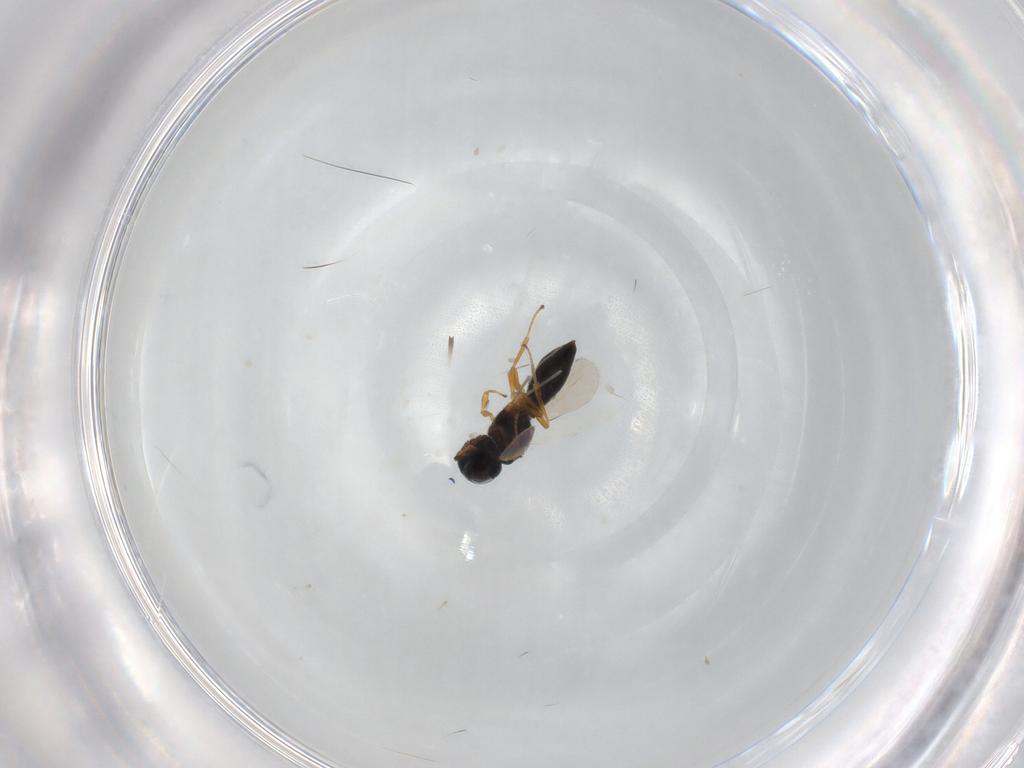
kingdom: Animalia
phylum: Arthropoda
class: Insecta
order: Hymenoptera
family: Scelionidae
